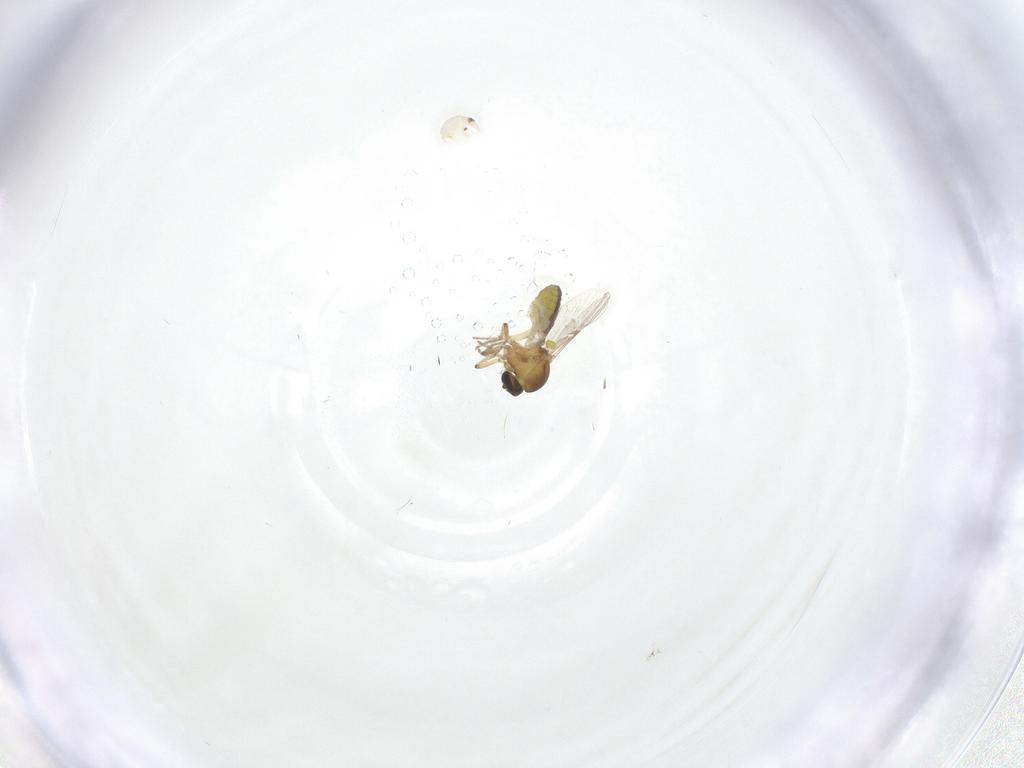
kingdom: Animalia
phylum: Arthropoda
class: Insecta
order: Diptera
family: Ceratopogonidae
